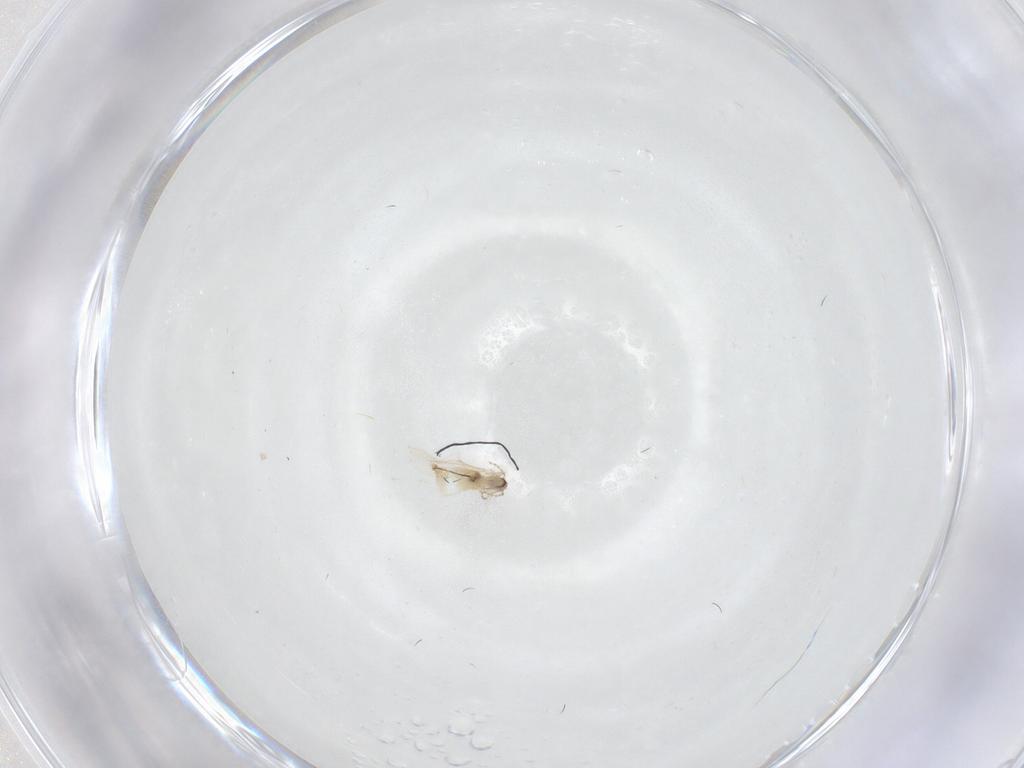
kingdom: Animalia
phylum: Arthropoda
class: Insecta
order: Diptera
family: Cecidomyiidae
